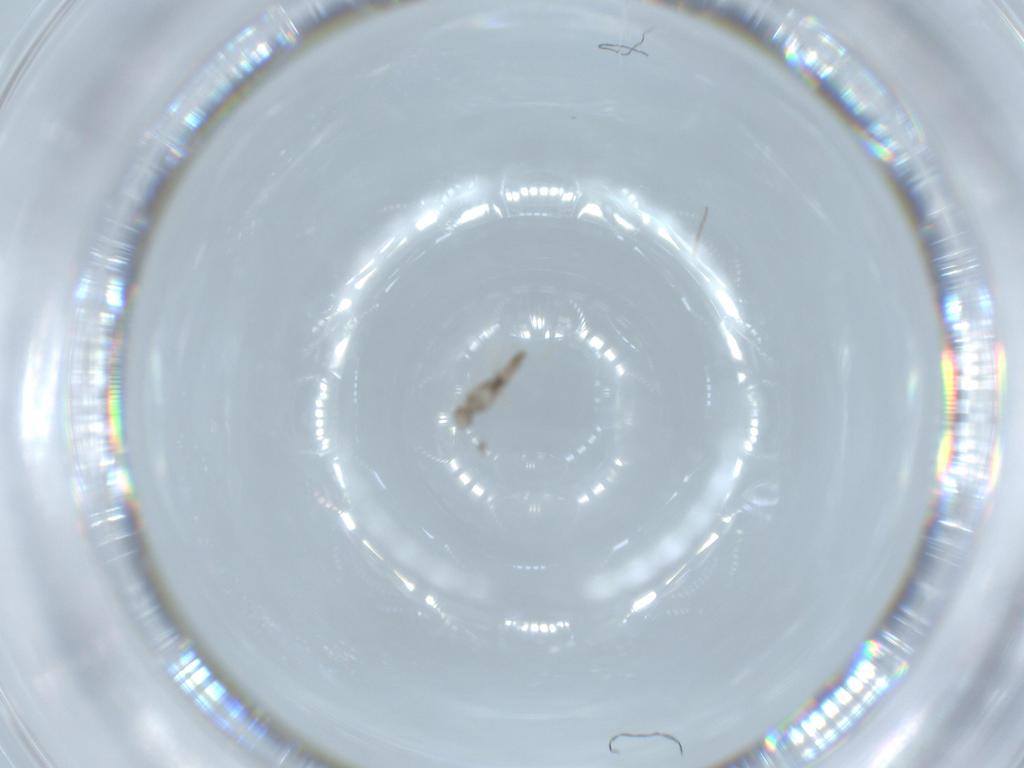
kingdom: Animalia
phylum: Arthropoda
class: Insecta
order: Diptera
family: Cecidomyiidae
